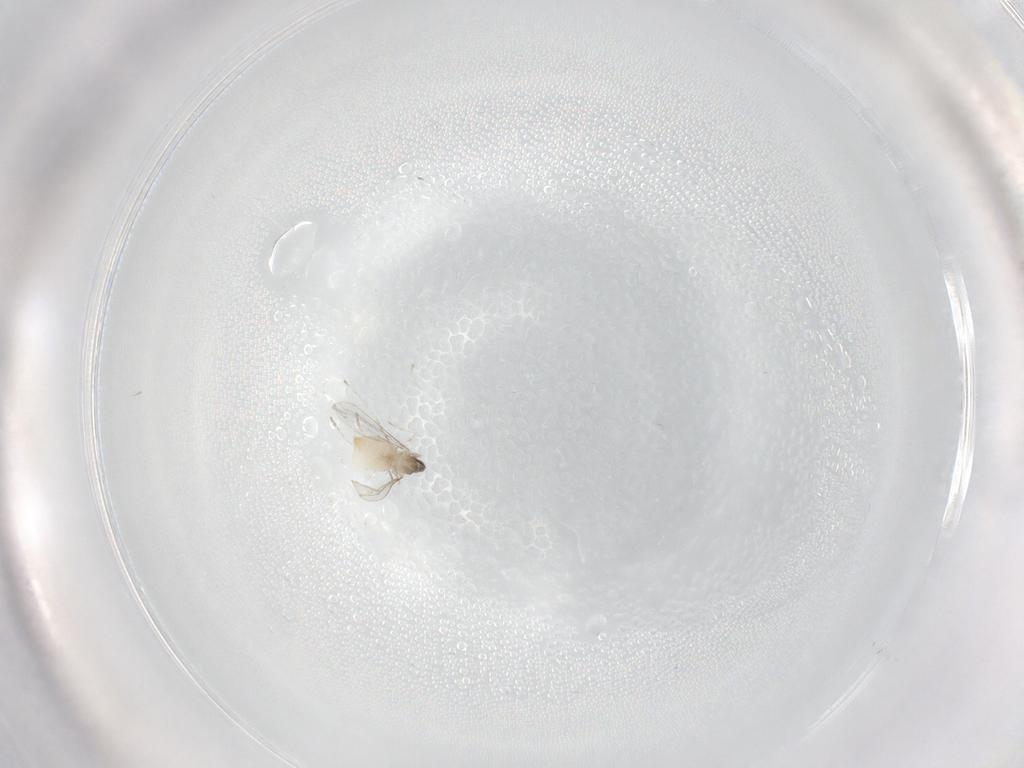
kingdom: Animalia
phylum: Arthropoda
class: Insecta
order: Diptera
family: Cecidomyiidae
